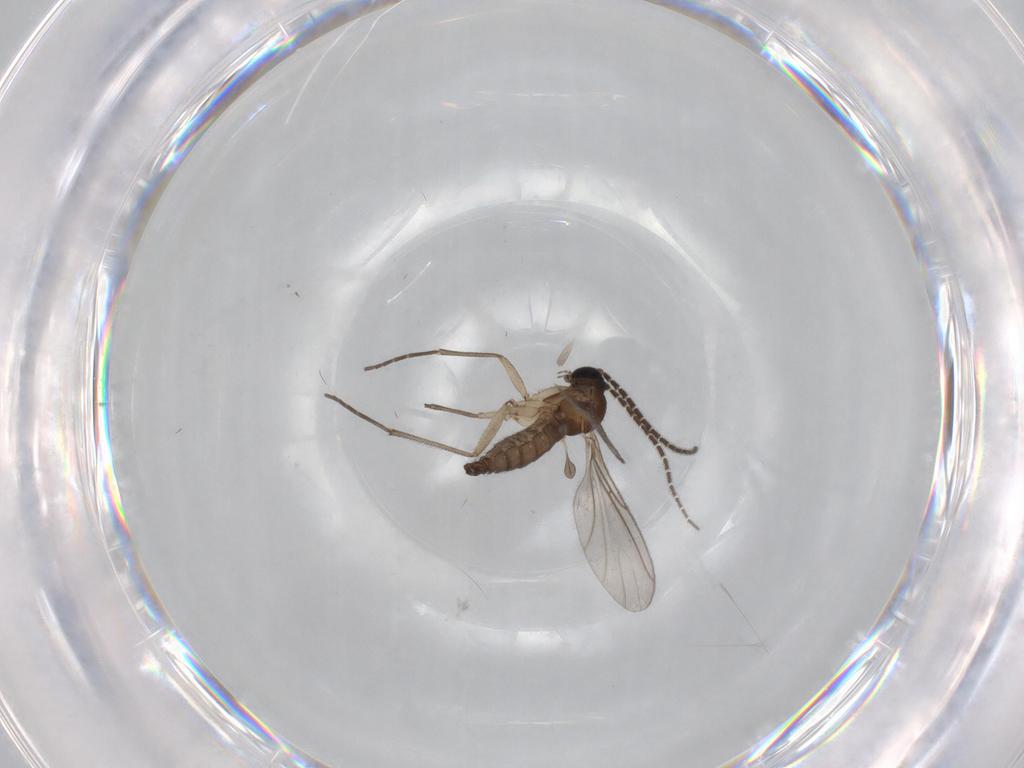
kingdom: Animalia
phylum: Arthropoda
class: Insecta
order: Diptera
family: Sciaridae
